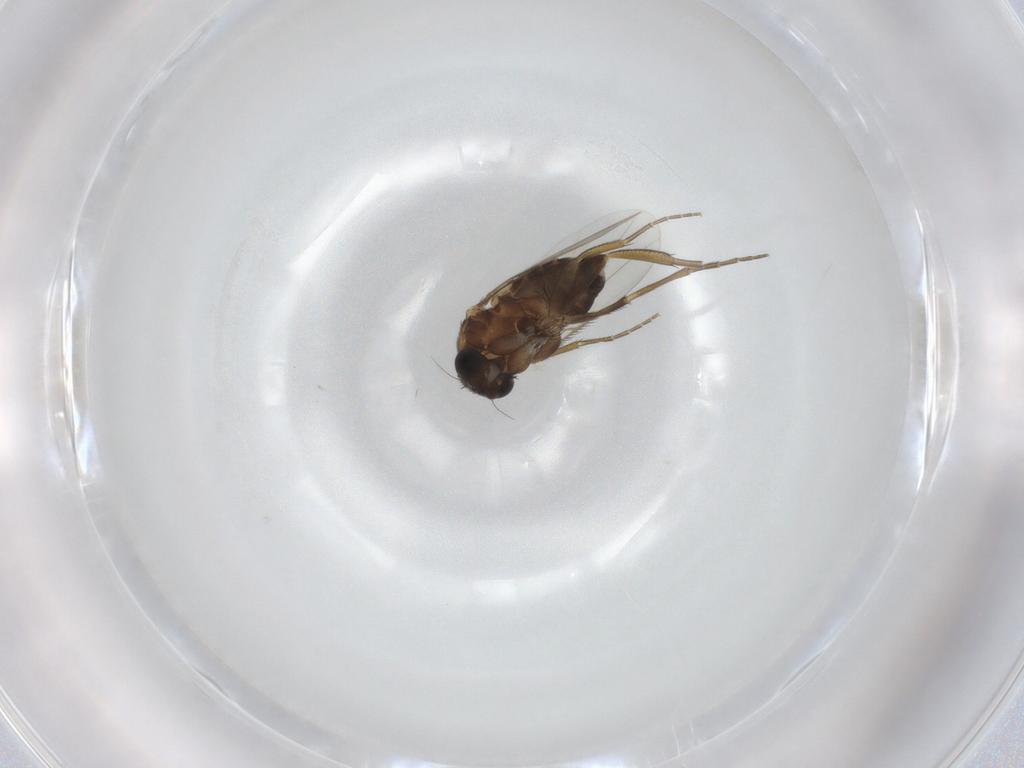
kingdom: Animalia
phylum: Arthropoda
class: Insecta
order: Diptera
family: Phoridae
